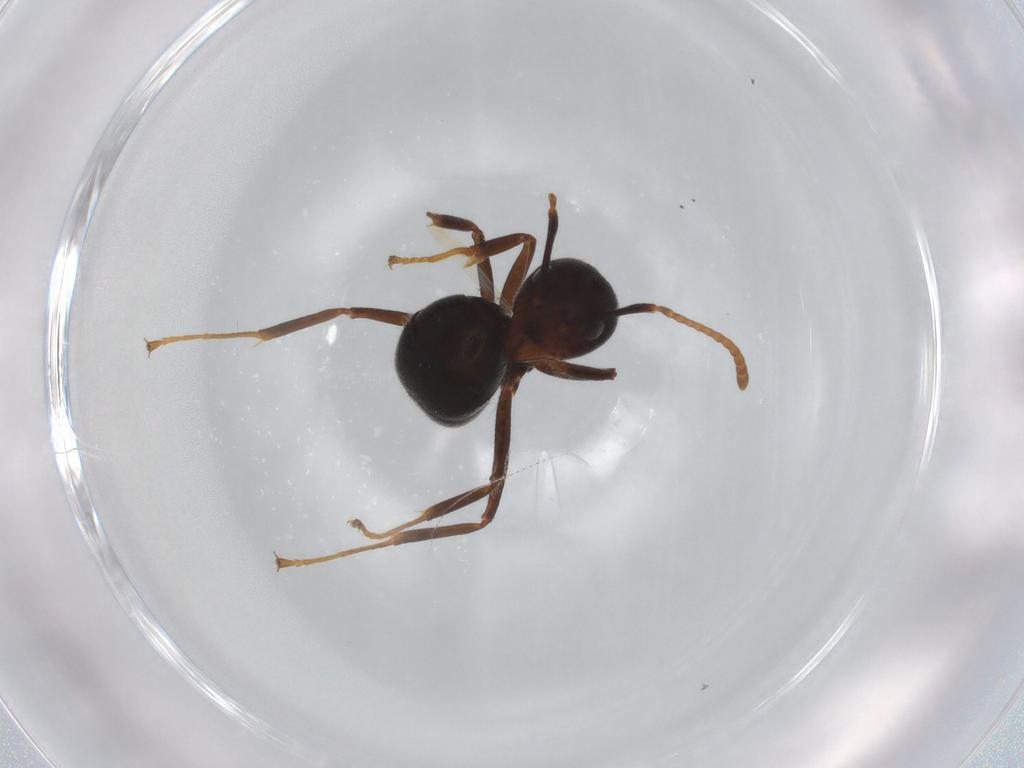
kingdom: Animalia
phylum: Arthropoda
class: Insecta
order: Hymenoptera
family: Formicidae
